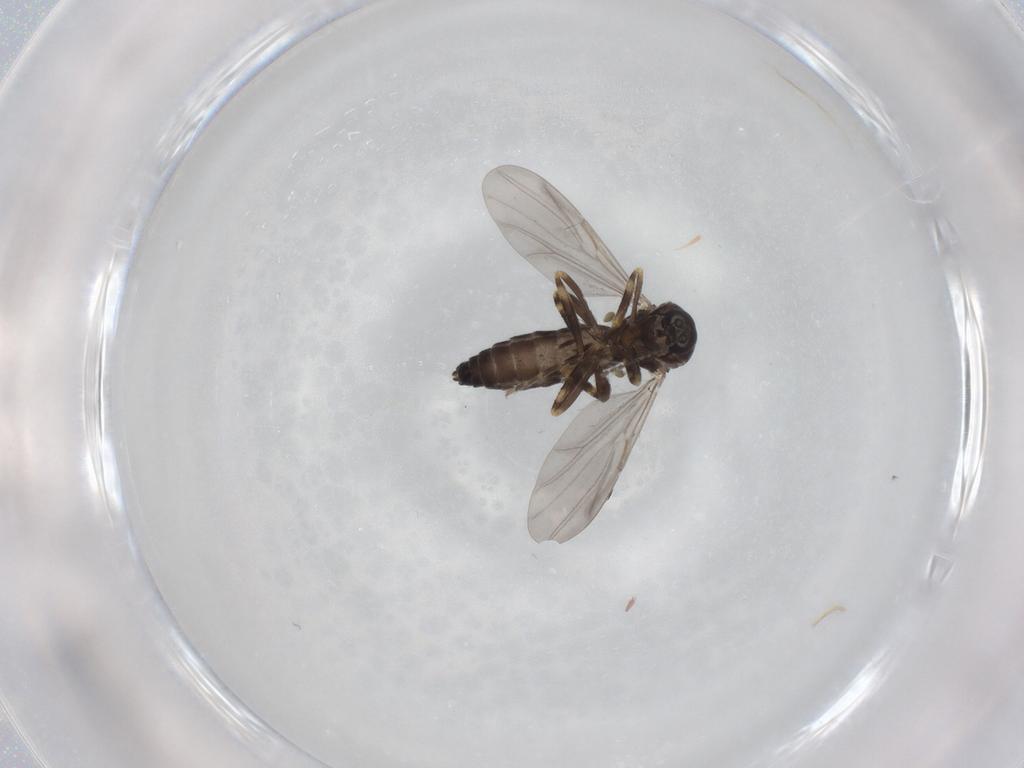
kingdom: Animalia
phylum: Arthropoda
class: Insecta
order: Diptera
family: Ceratopogonidae
